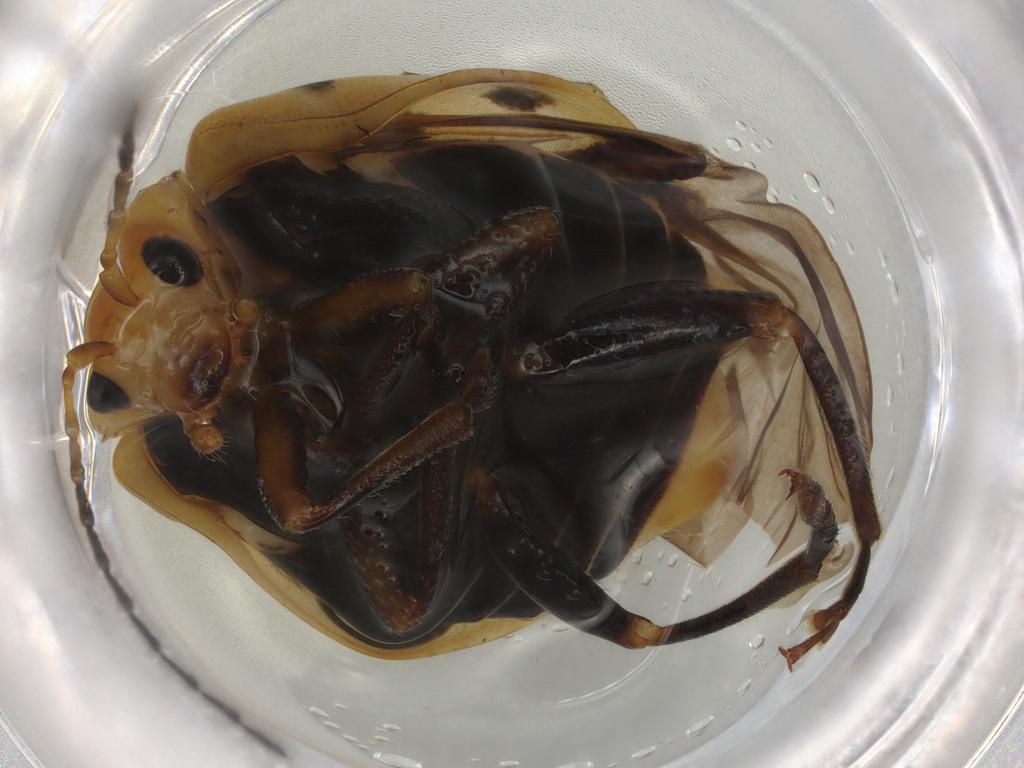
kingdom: Animalia
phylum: Arthropoda
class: Insecta
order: Coleoptera
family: Chrysomelidae
